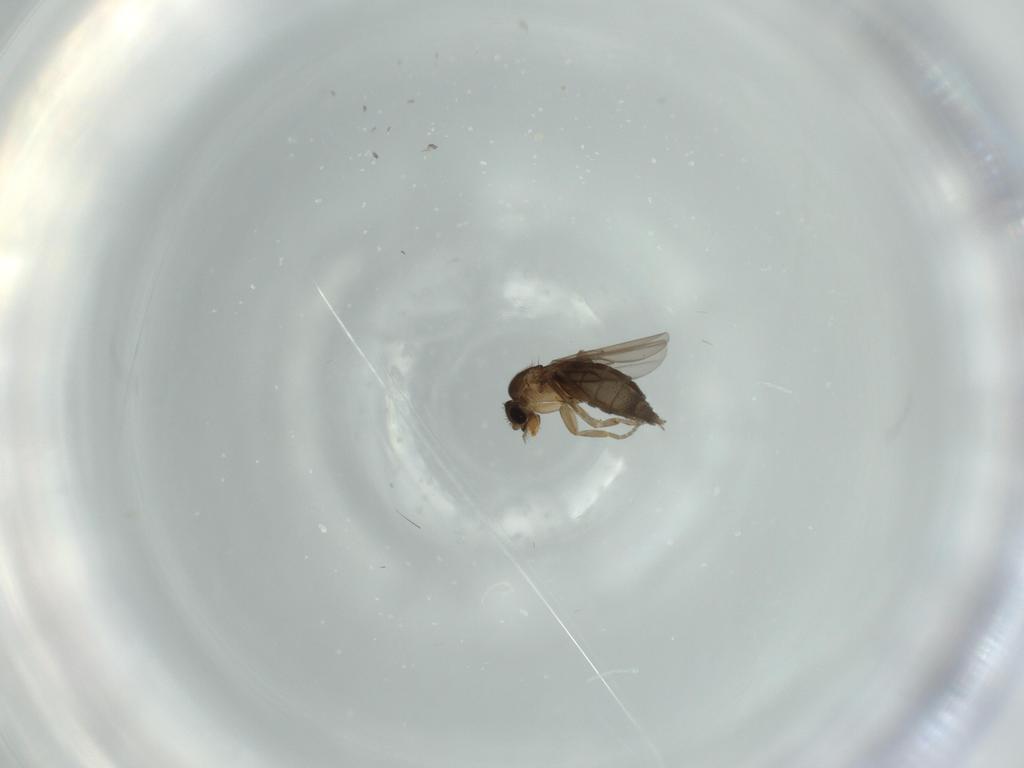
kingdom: Animalia
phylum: Arthropoda
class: Insecta
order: Diptera
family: Phoridae
